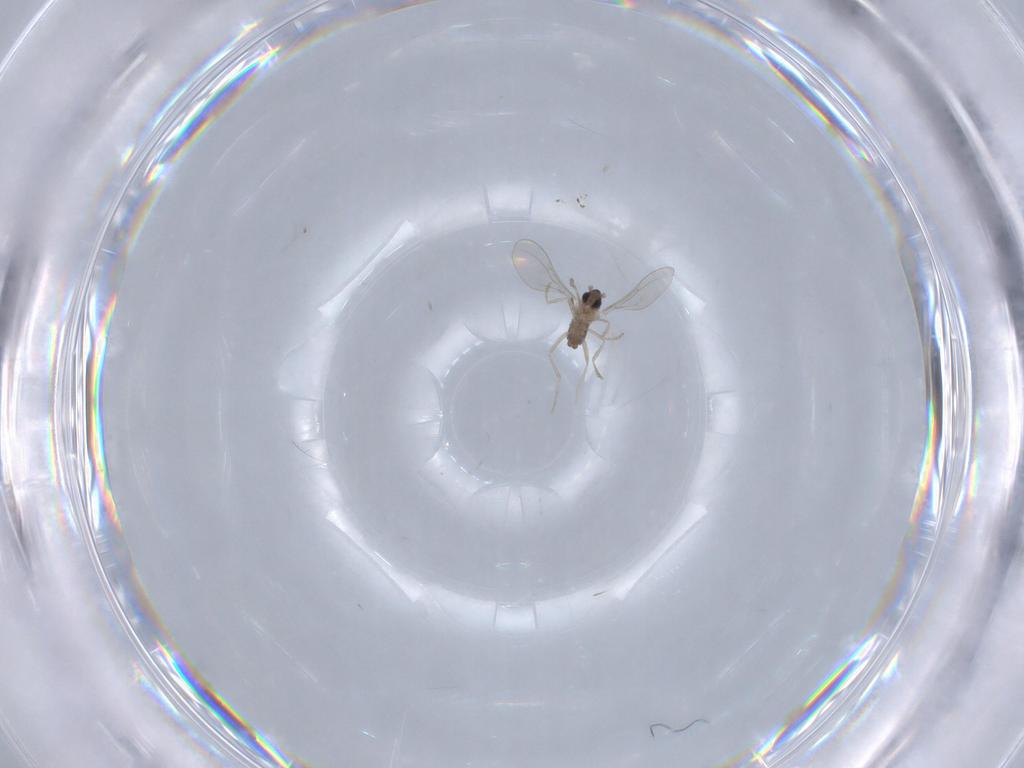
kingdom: Animalia
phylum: Arthropoda
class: Insecta
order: Diptera
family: Cecidomyiidae
